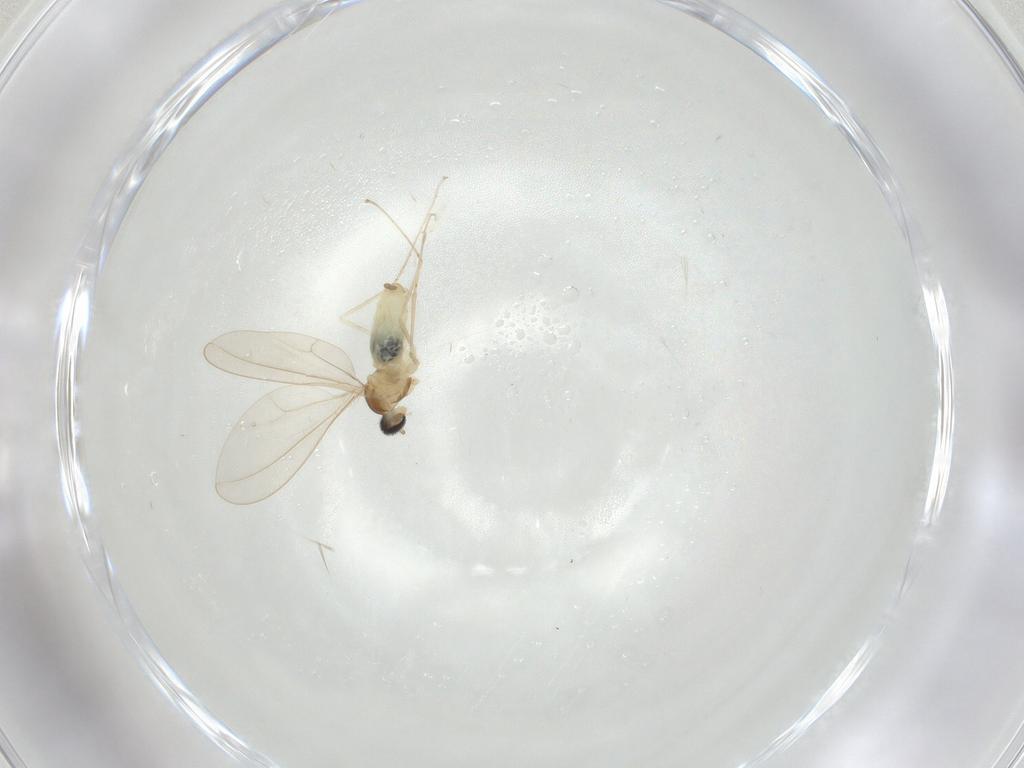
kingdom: Animalia
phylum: Arthropoda
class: Insecta
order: Diptera
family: Cecidomyiidae
